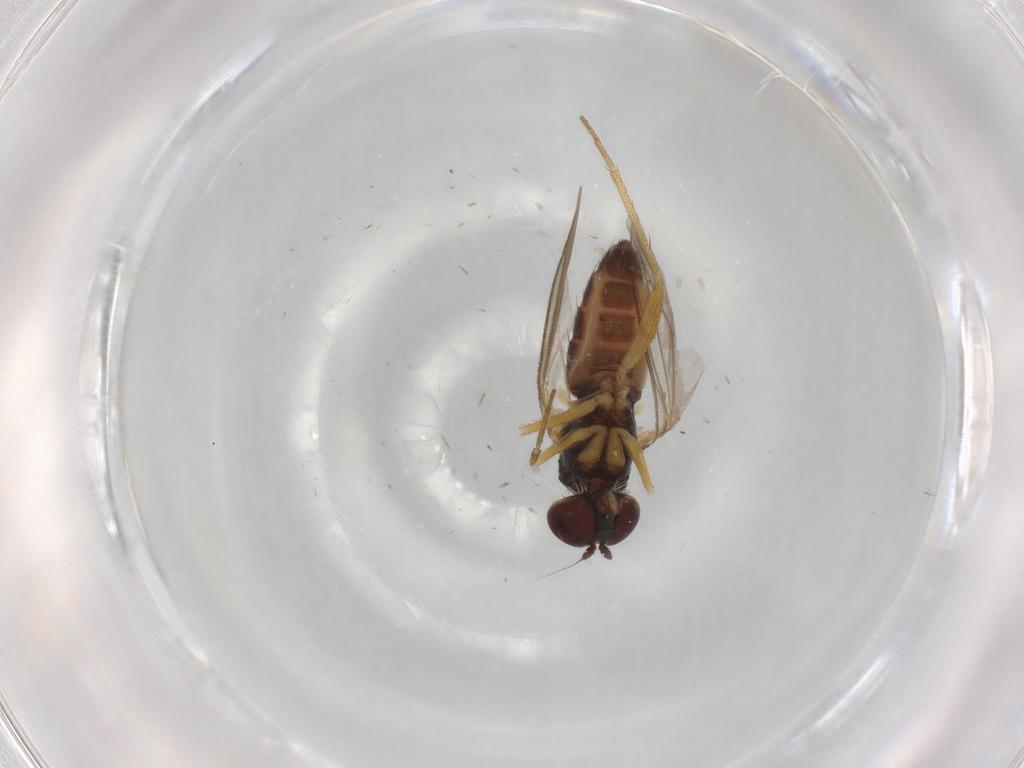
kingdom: Animalia
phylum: Arthropoda
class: Insecta
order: Diptera
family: Chironomidae
